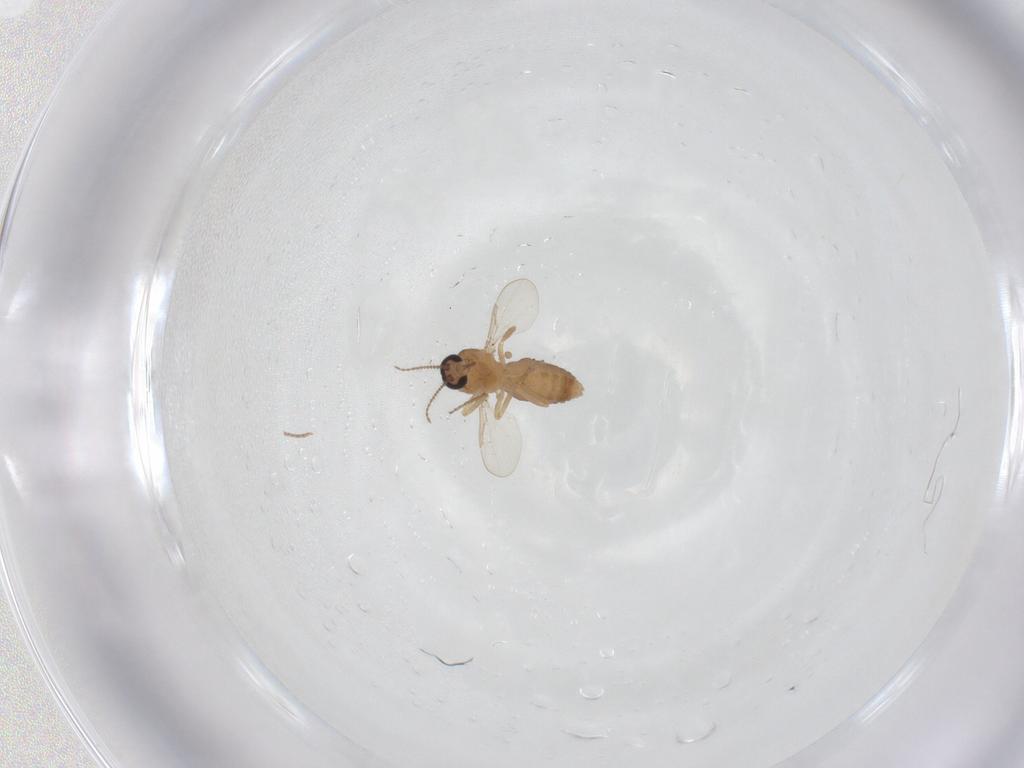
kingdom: Animalia
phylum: Arthropoda
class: Insecta
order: Diptera
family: Ceratopogonidae
